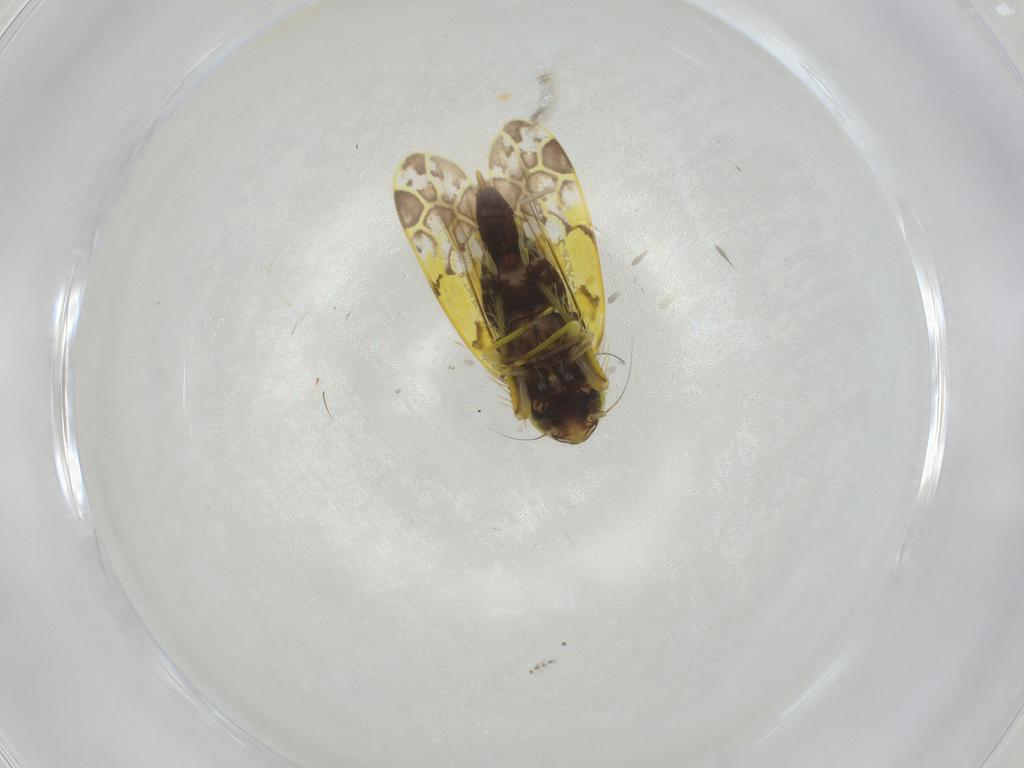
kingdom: Animalia
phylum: Arthropoda
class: Insecta
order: Hemiptera
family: Cicadellidae
